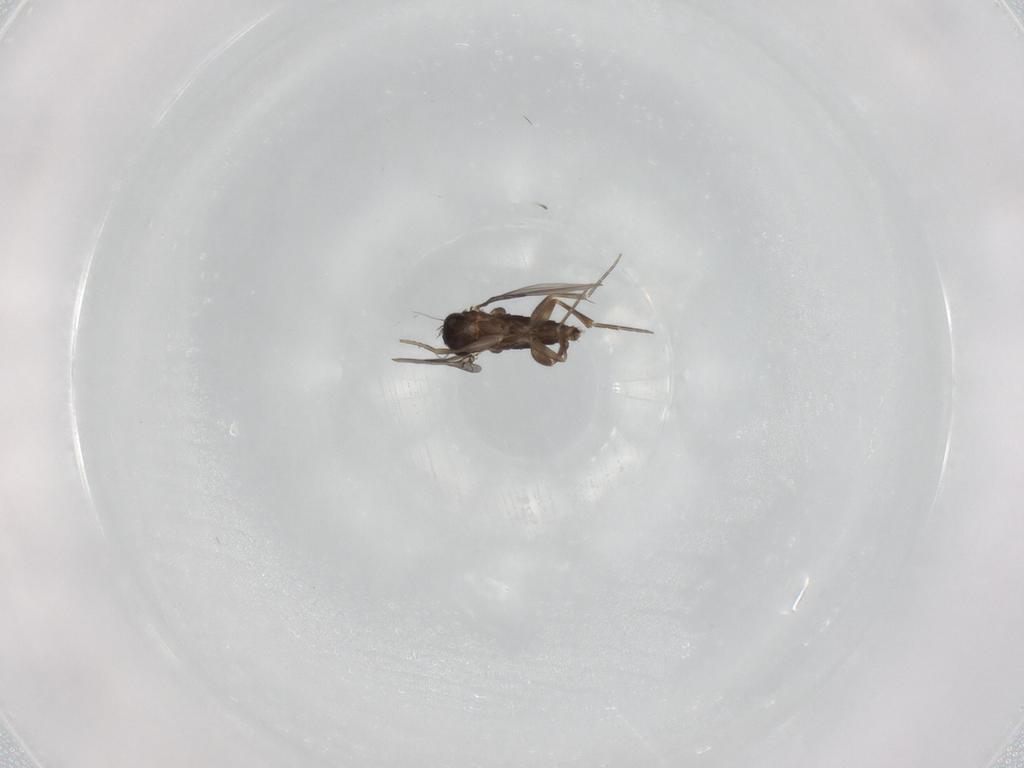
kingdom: Animalia
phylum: Arthropoda
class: Insecta
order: Diptera
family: Phoridae
